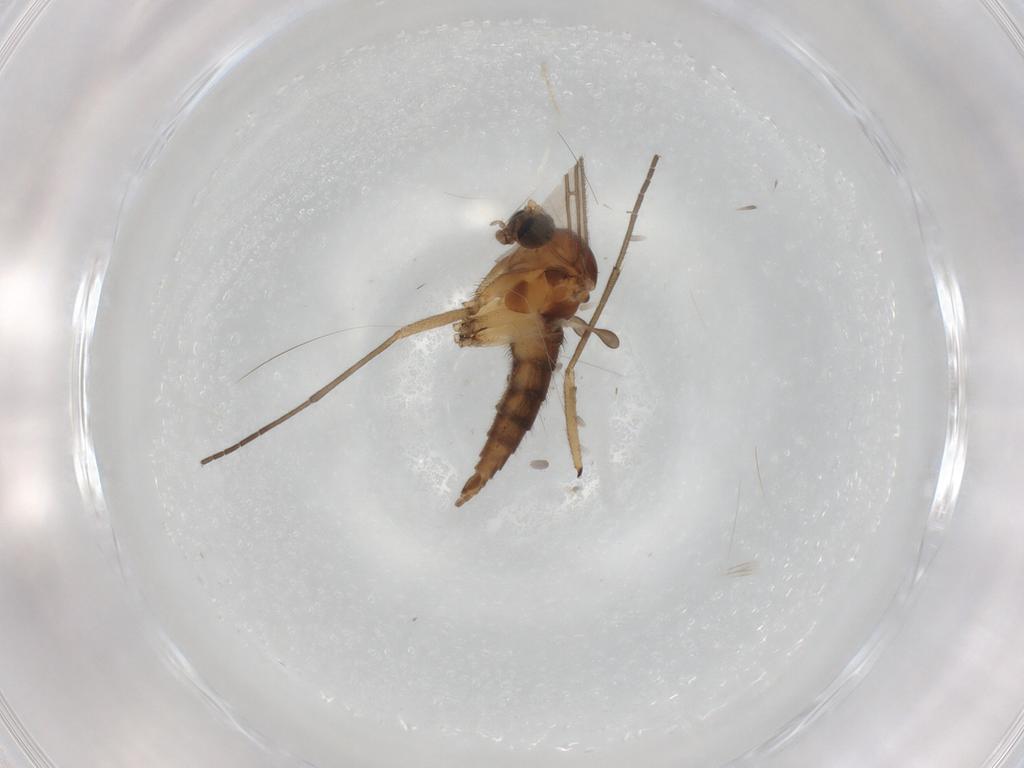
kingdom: Animalia
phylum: Arthropoda
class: Insecta
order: Diptera
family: Sciaridae
